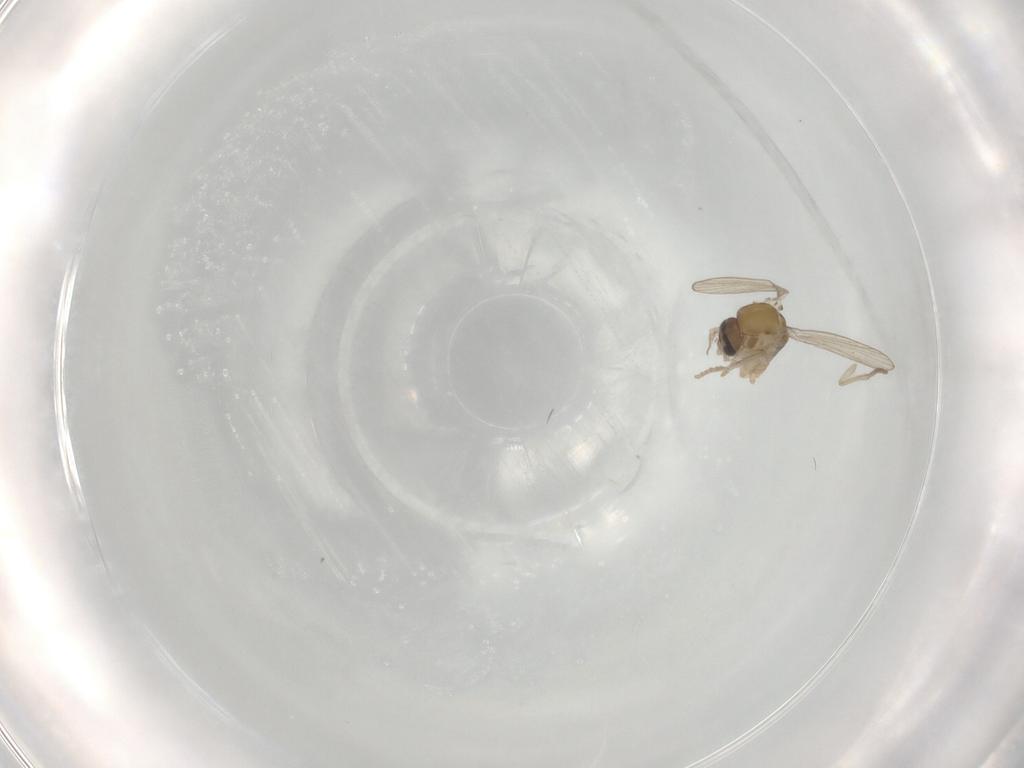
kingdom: Animalia
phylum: Arthropoda
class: Insecta
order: Diptera
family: Psychodidae
